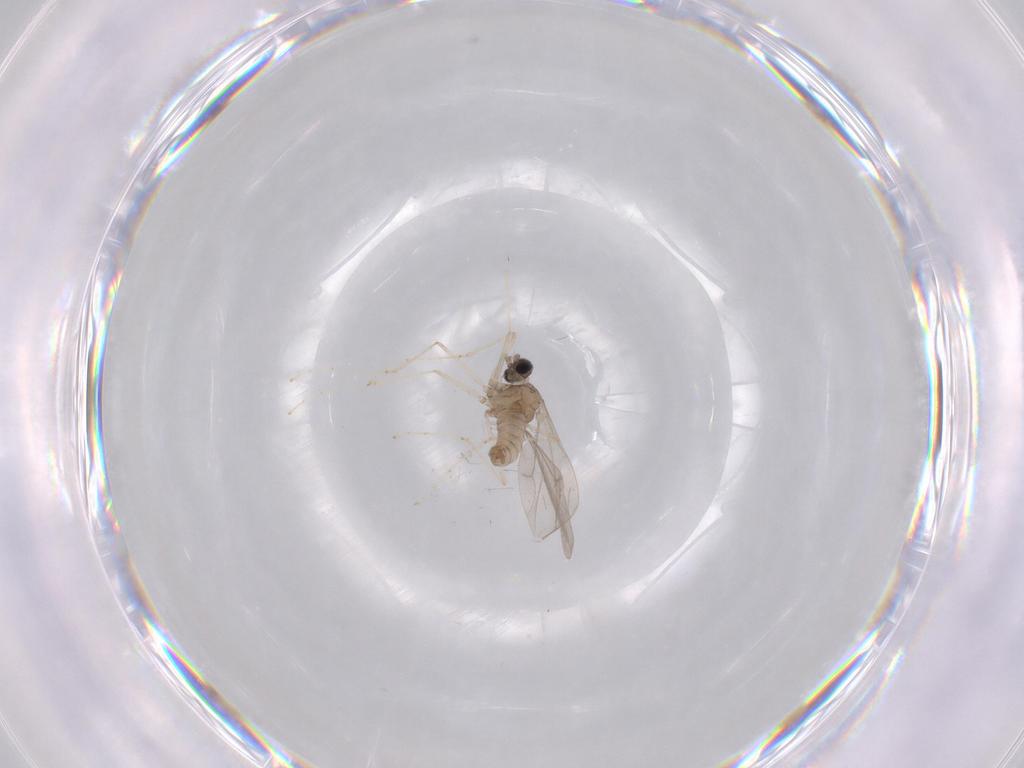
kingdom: Animalia
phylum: Arthropoda
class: Insecta
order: Diptera
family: Cecidomyiidae
